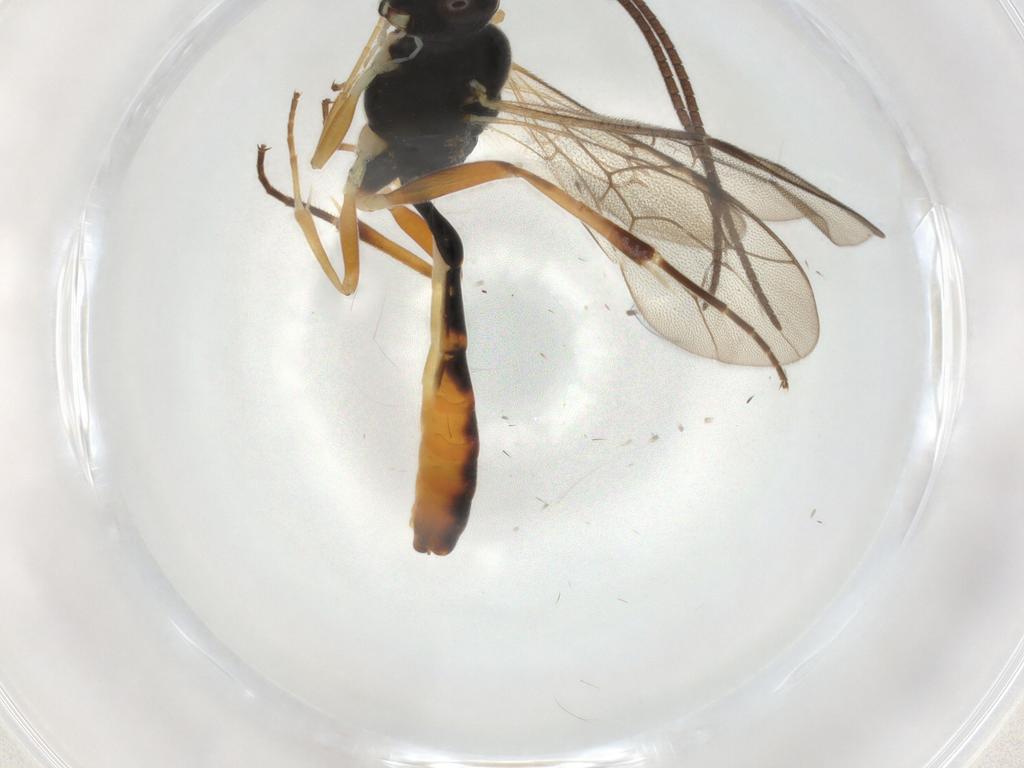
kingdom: Animalia
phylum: Arthropoda
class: Insecta
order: Hymenoptera
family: Ichneumonidae
